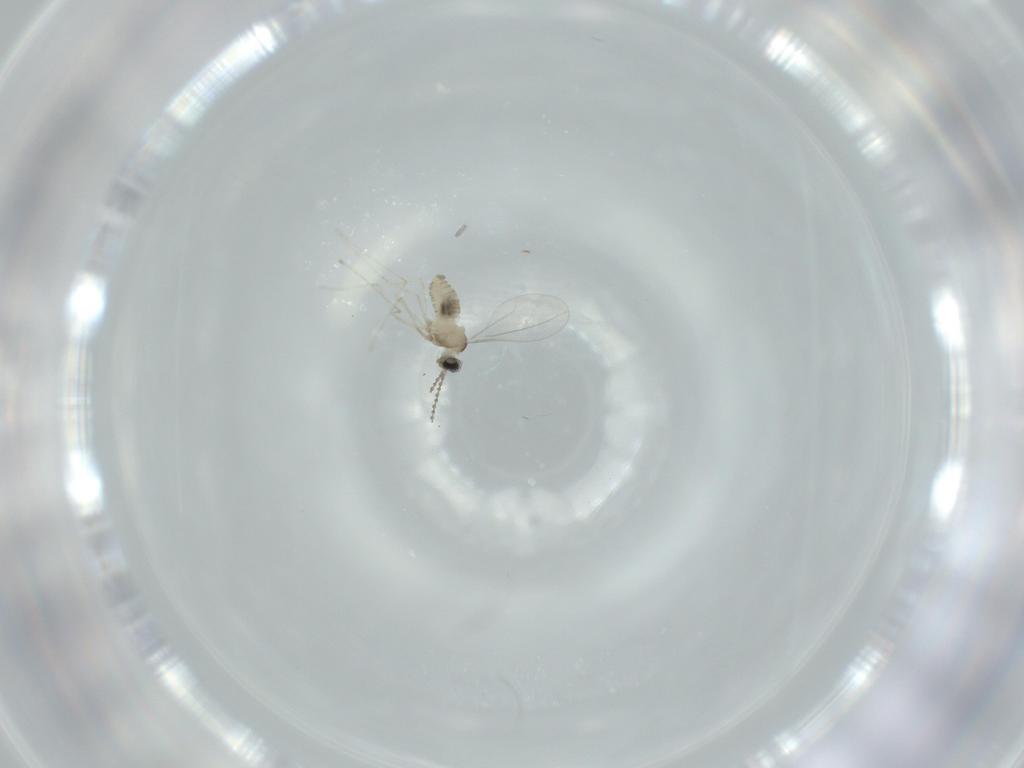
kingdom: Animalia
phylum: Arthropoda
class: Insecta
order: Diptera
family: Cecidomyiidae
